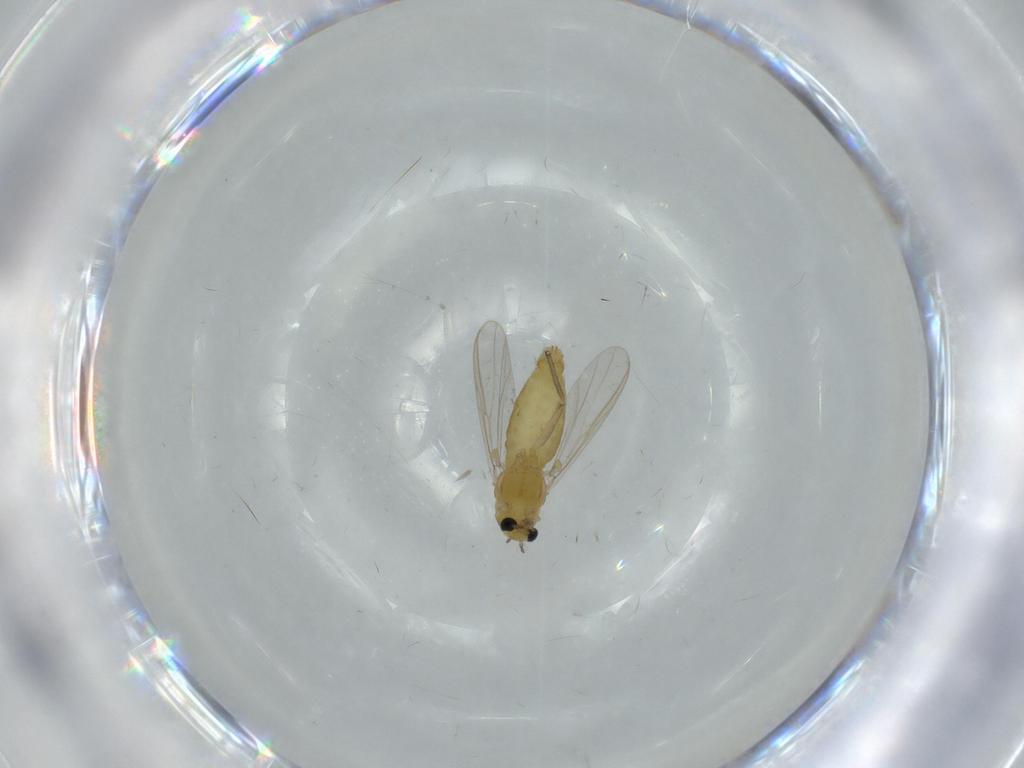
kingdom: Animalia
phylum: Arthropoda
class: Insecta
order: Diptera
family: Chironomidae
